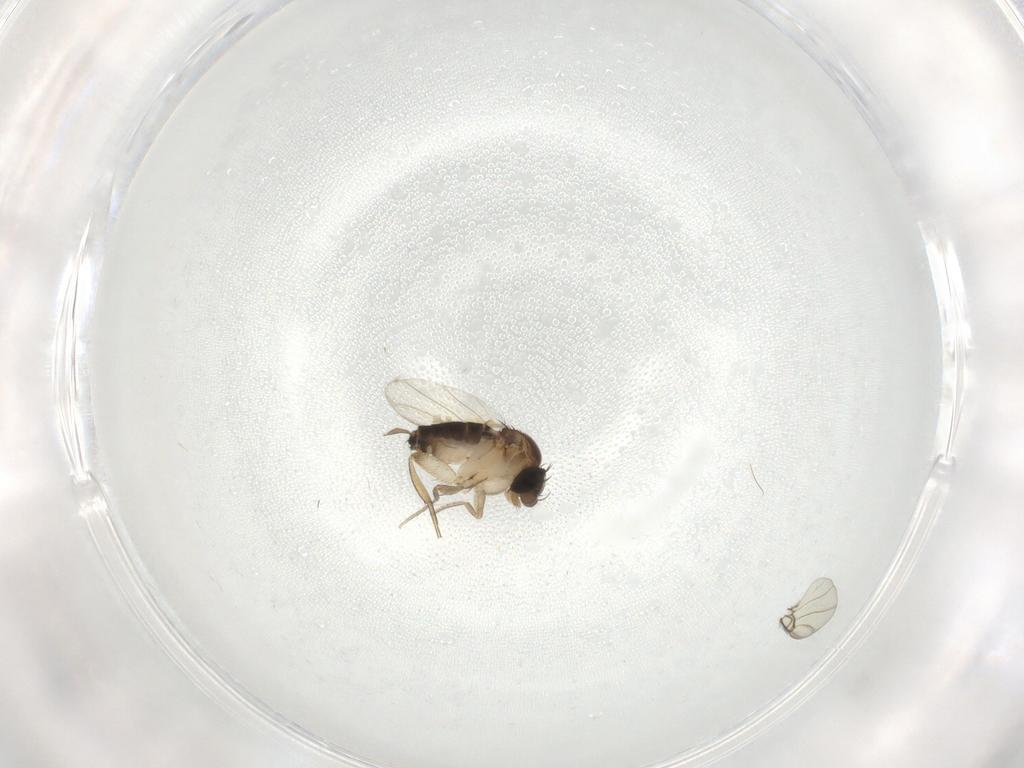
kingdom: Animalia
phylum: Arthropoda
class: Insecta
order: Diptera
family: Chironomidae
